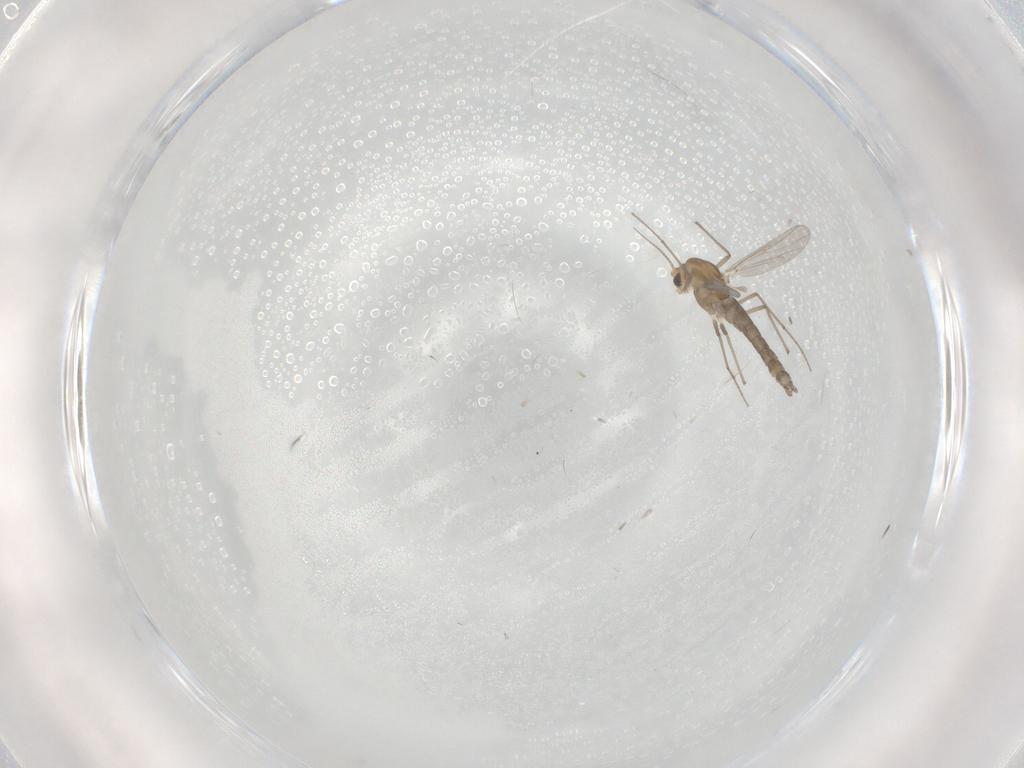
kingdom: Animalia
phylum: Arthropoda
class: Insecta
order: Diptera
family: Chironomidae
